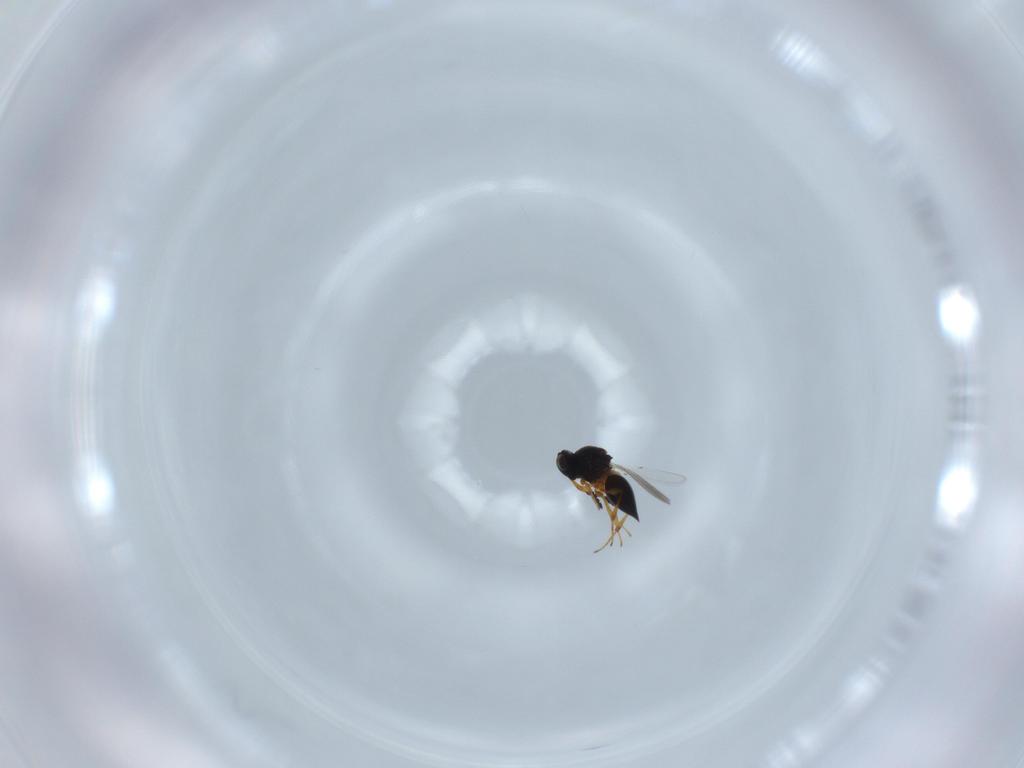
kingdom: Animalia
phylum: Arthropoda
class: Insecta
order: Hymenoptera
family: Platygastridae
